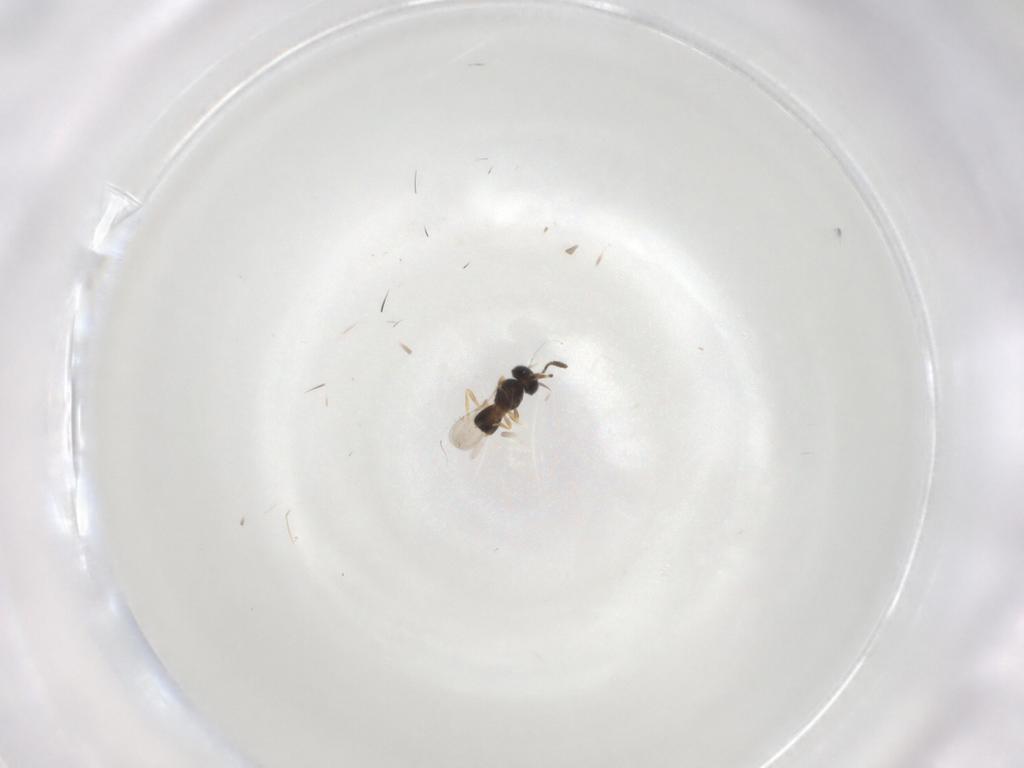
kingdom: Animalia
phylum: Arthropoda
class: Insecta
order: Hymenoptera
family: Scelionidae
